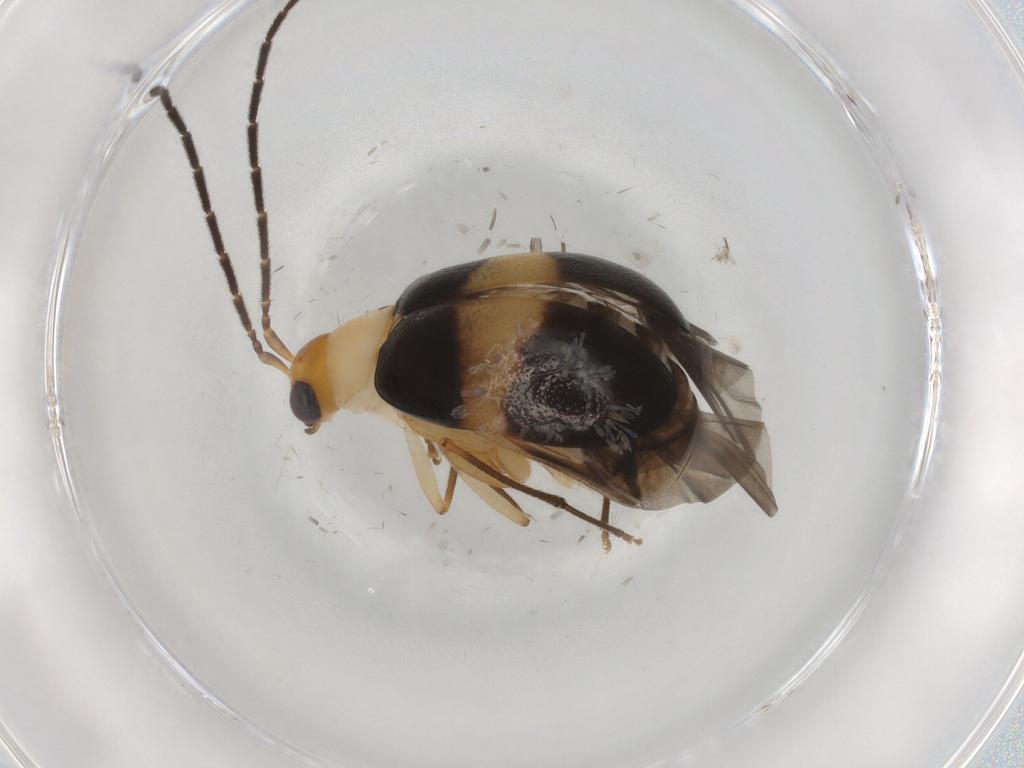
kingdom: Animalia
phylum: Arthropoda
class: Insecta
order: Coleoptera
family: Chrysomelidae
